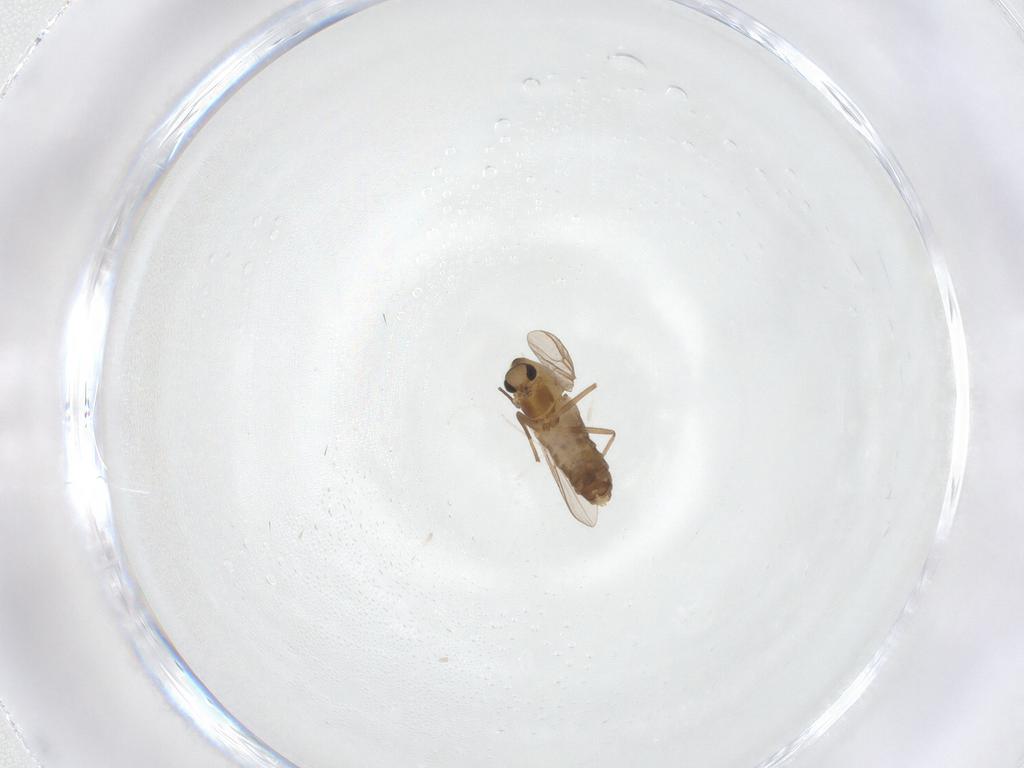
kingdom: Animalia
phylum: Arthropoda
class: Insecta
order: Diptera
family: Chironomidae
